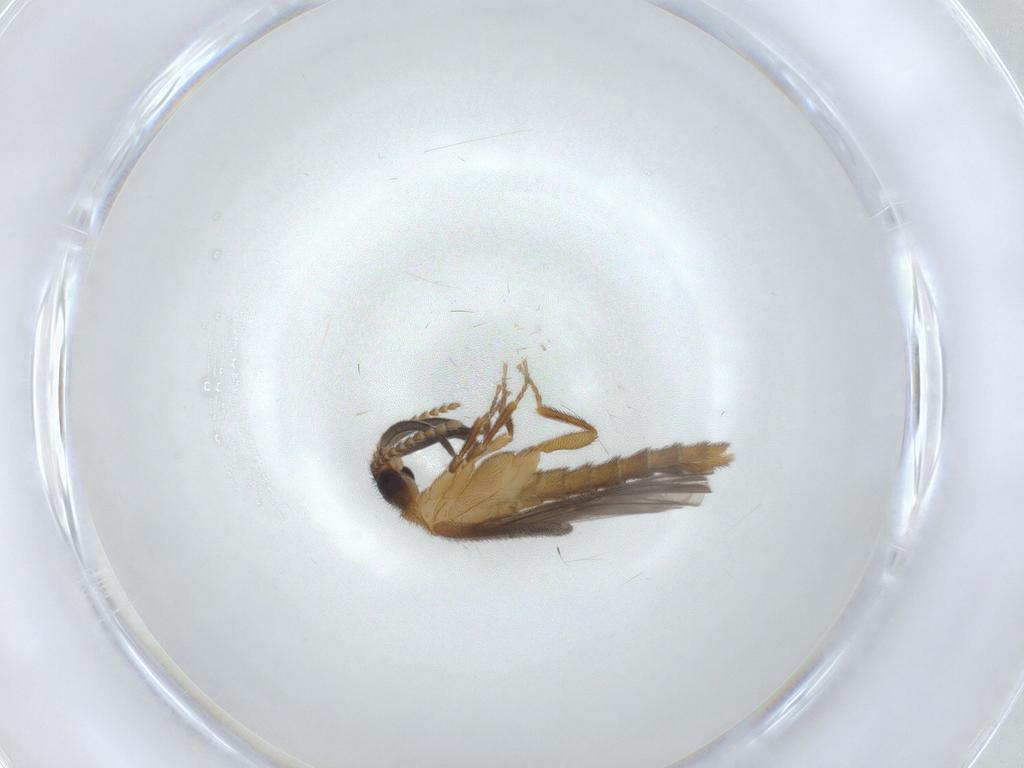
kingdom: Animalia
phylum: Arthropoda
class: Insecta
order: Coleoptera
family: Omethidae
